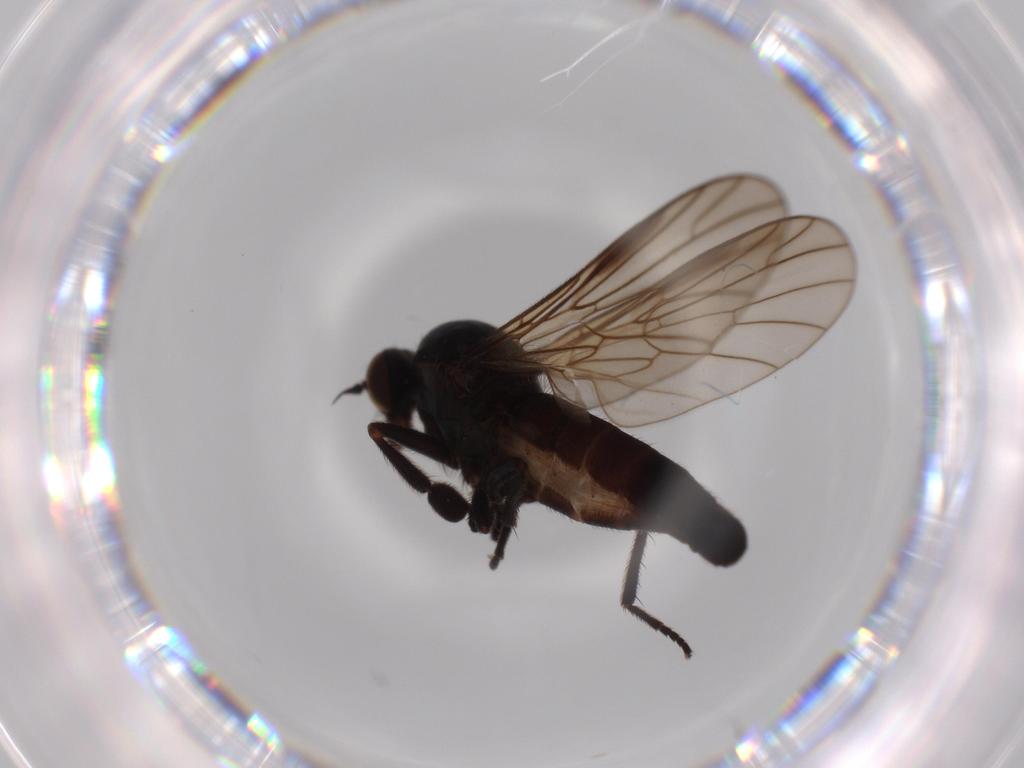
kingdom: Animalia
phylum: Arthropoda
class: Insecta
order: Diptera
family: Empididae
